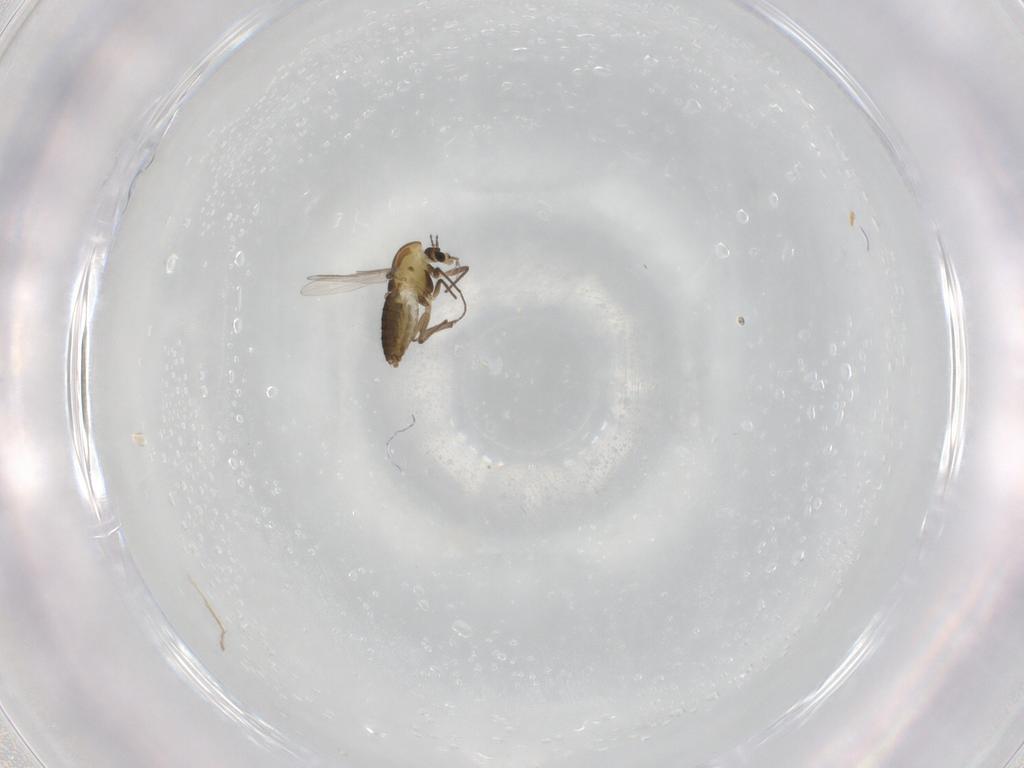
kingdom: Animalia
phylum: Arthropoda
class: Insecta
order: Diptera
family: Chironomidae
